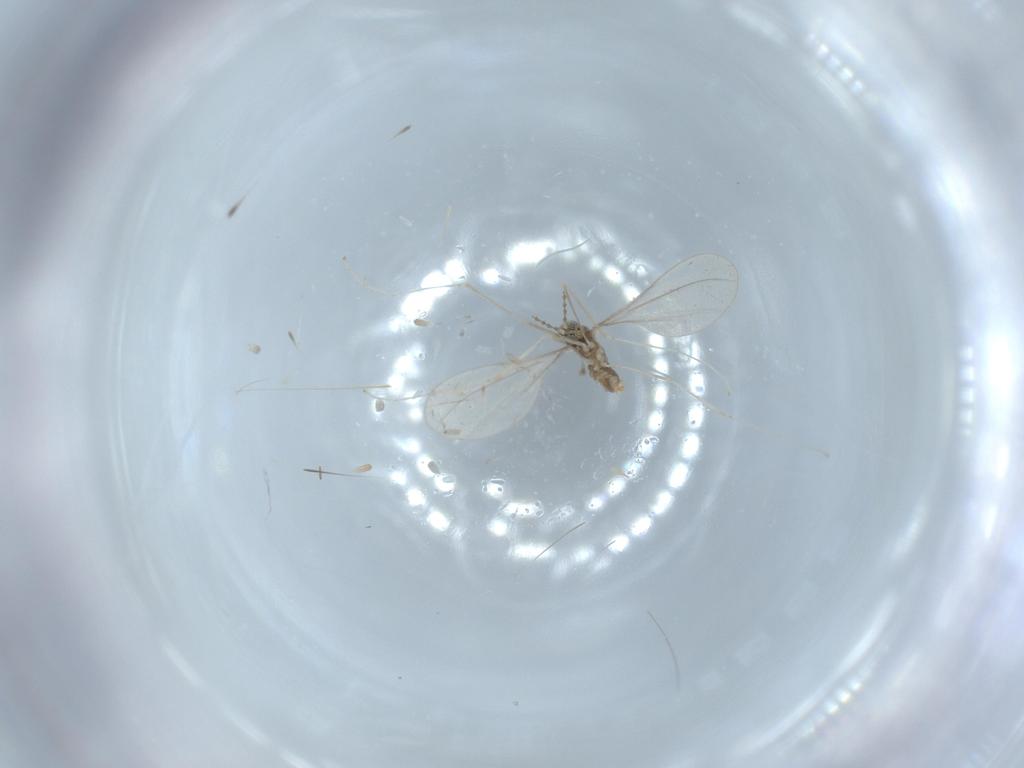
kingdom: Animalia
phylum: Arthropoda
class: Insecta
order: Diptera
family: Cecidomyiidae
